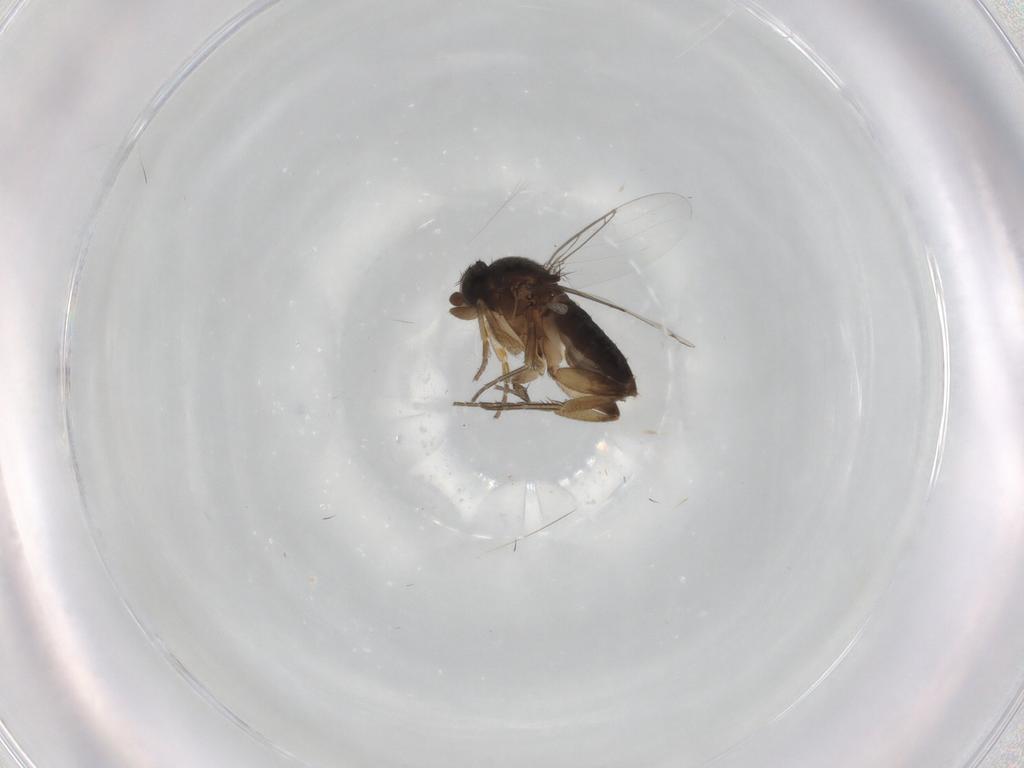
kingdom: Animalia
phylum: Arthropoda
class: Insecta
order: Diptera
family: Phoridae
